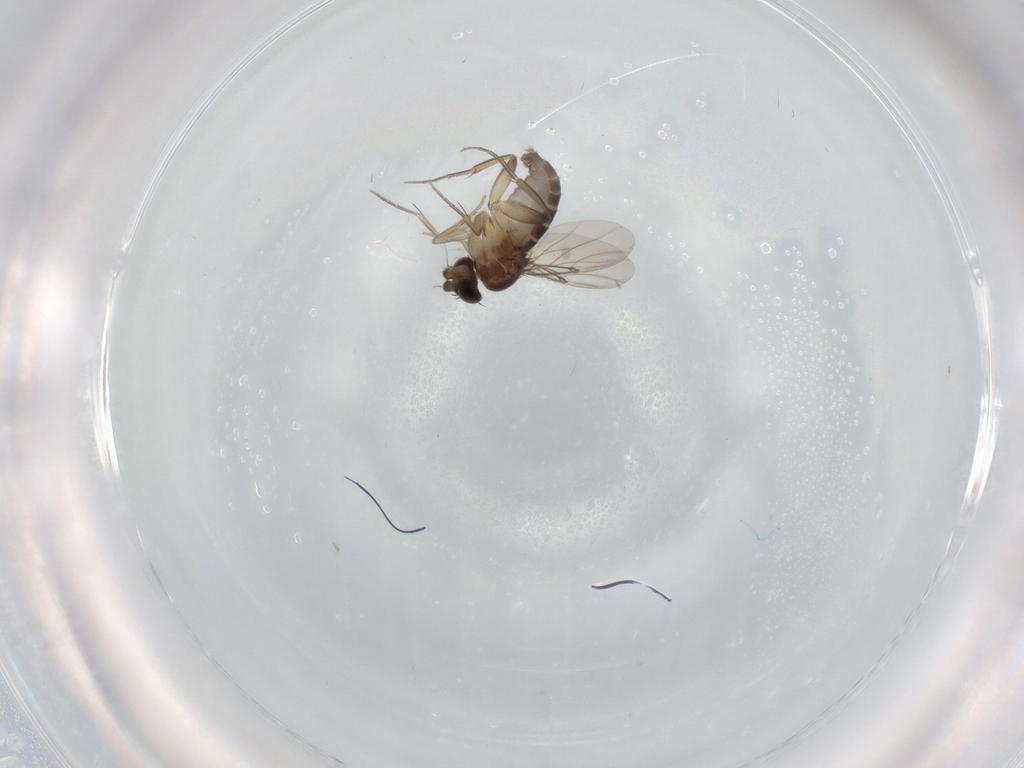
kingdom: Animalia
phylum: Arthropoda
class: Insecta
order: Diptera
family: Phoridae
